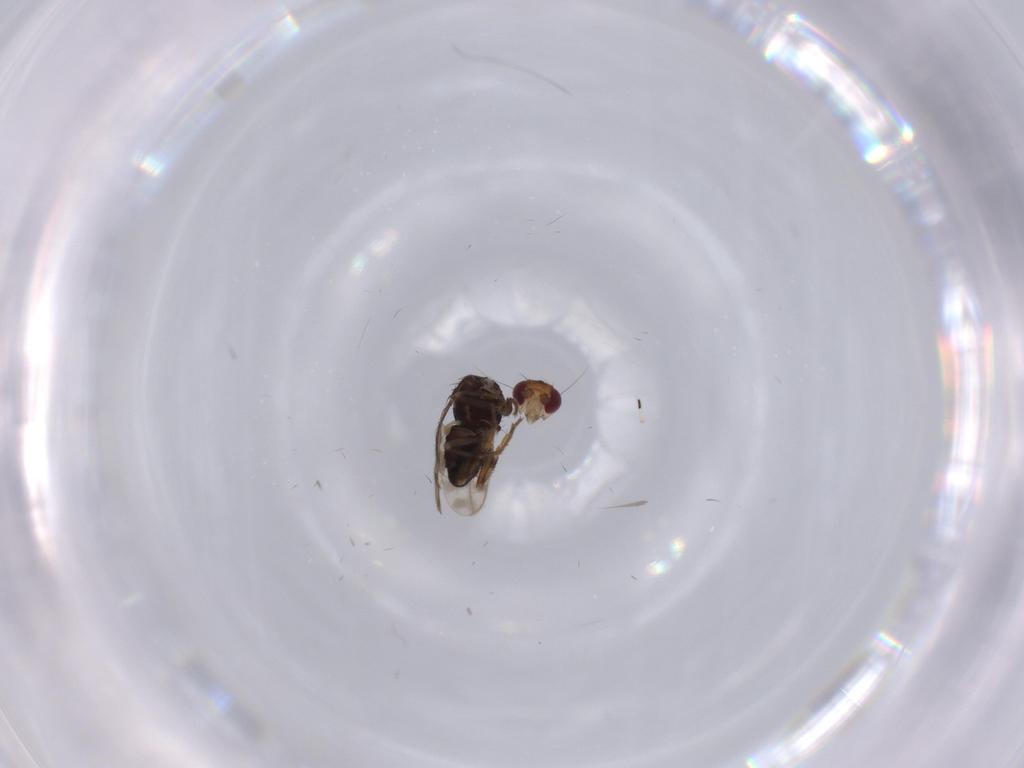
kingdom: Animalia
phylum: Arthropoda
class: Insecta
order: Diptera
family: Sphaeroceridae
